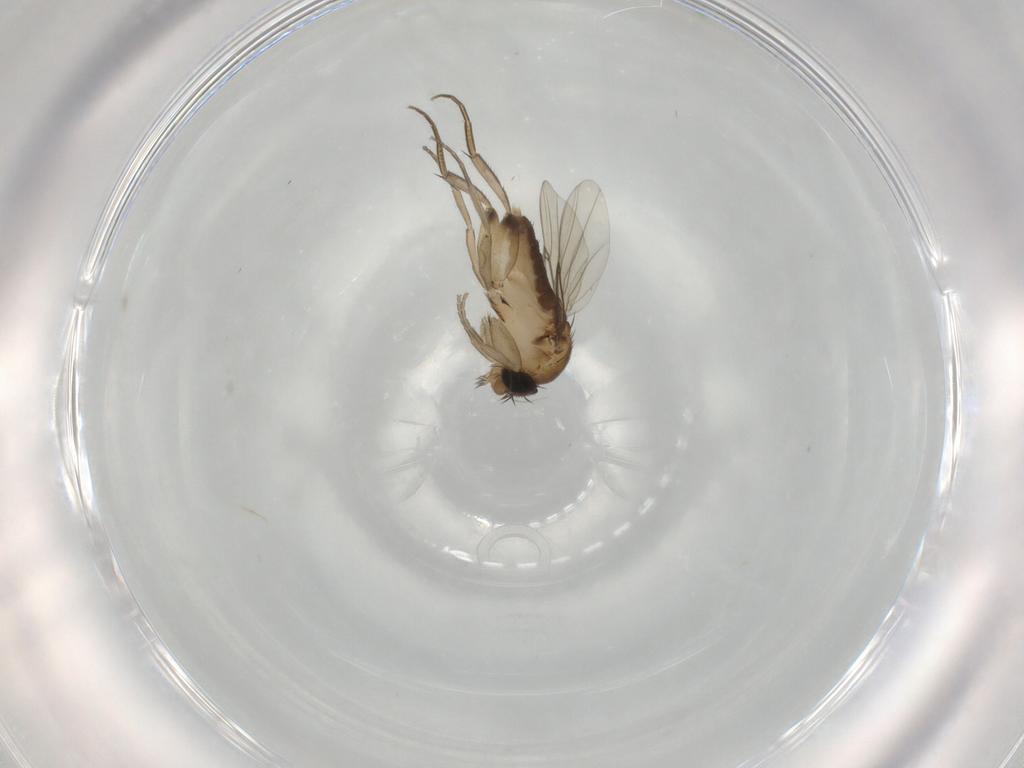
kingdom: Animalia
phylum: Arthropoda
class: Insecta
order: Diptera
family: Phoridae
